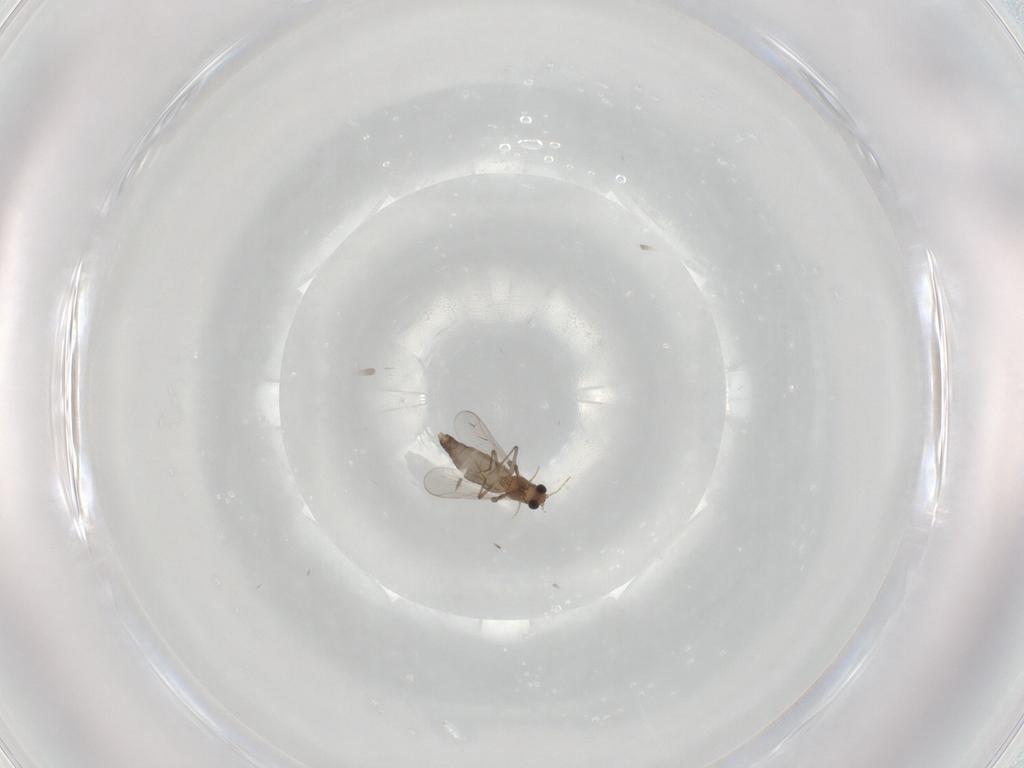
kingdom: Animalia
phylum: Arthropoda
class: Insecta
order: Diptera
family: Chironomidae
